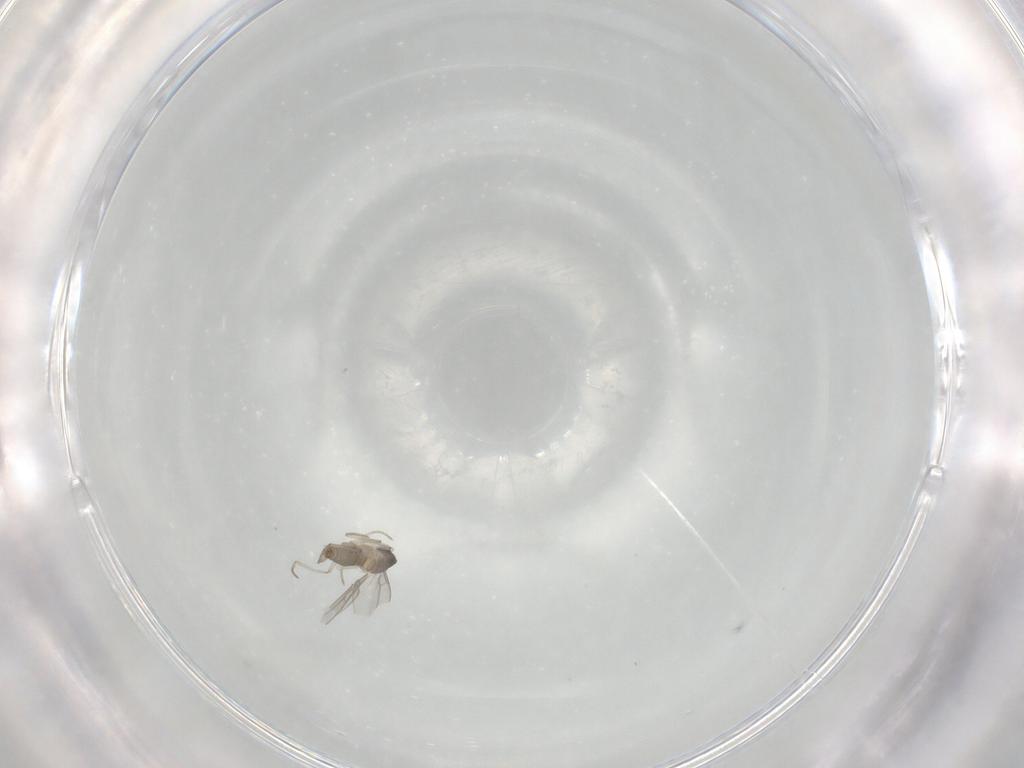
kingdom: Animalia
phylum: Arthropoda
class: Insecta
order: Diptera
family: Cecidomyiidae
